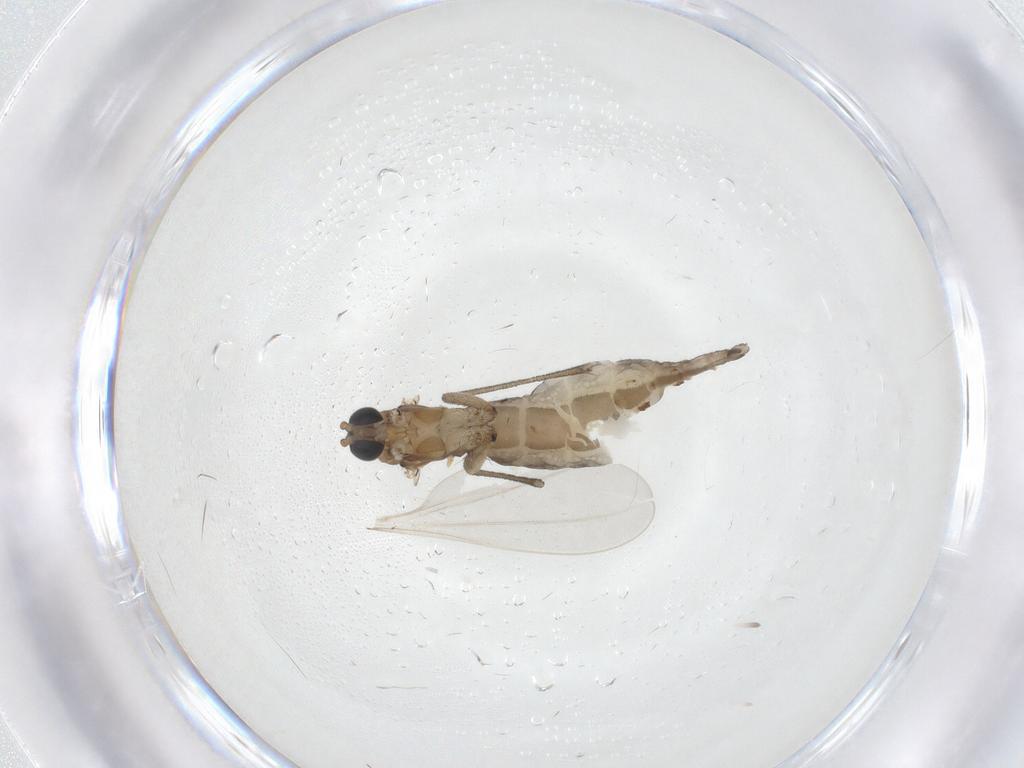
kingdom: Animalia
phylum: Arthropoda
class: Insecta
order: Diptera
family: Sciaridae
